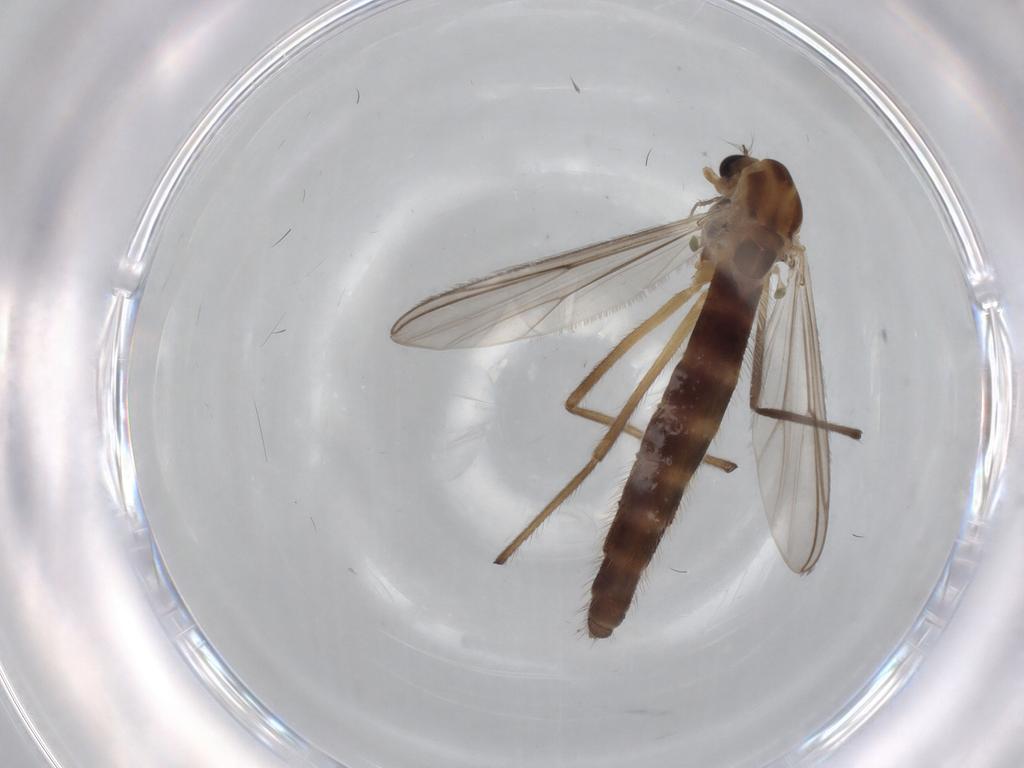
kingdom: Animalia
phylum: Arthropoda
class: Insecta
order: Diptera
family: Chironomidae
